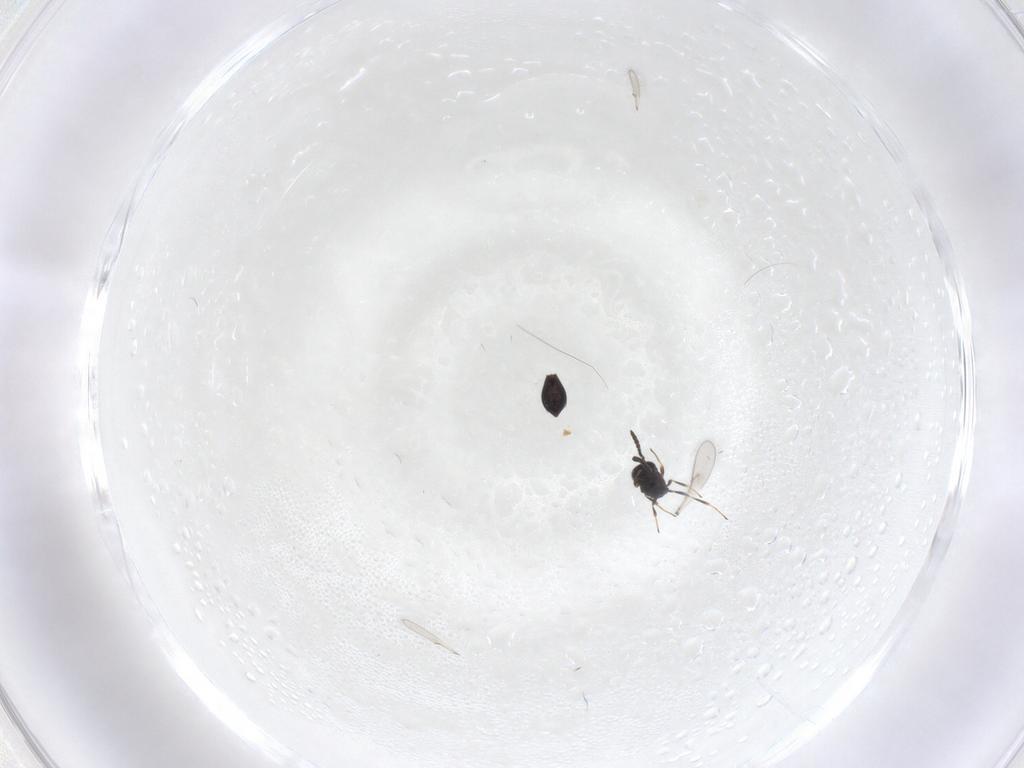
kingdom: Animalia
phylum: Arthropoda
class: Insecta
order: Hymenoptera
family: Scelionidae
